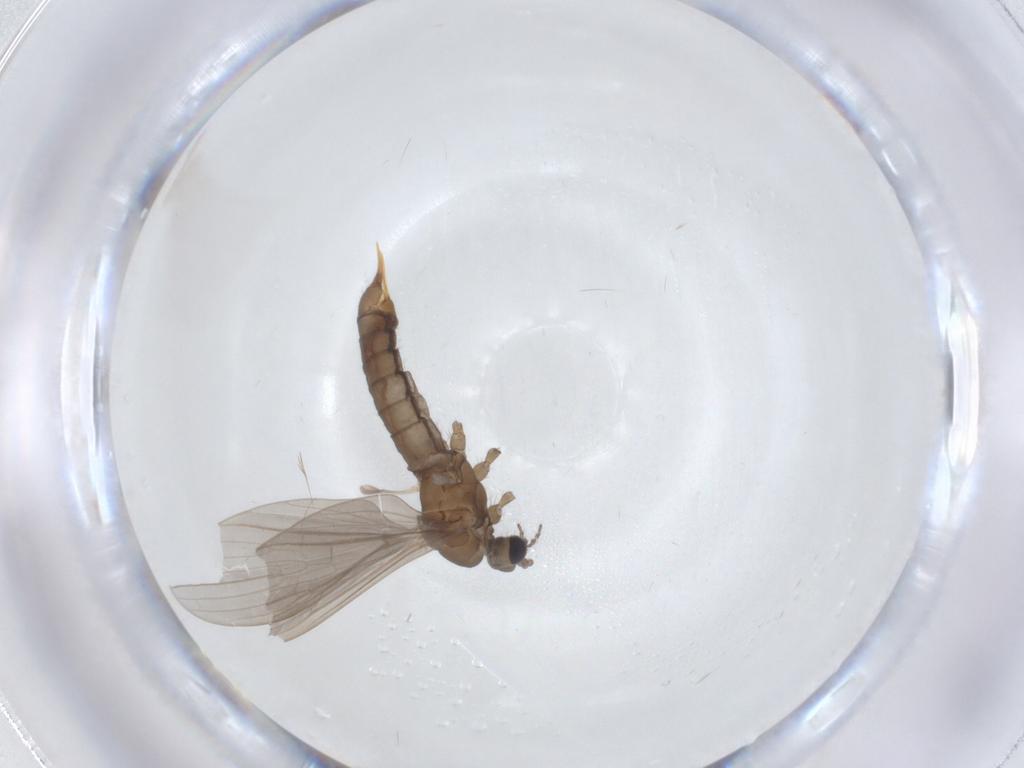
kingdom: Animalia
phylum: Arthropoda
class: Insecta
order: Diptera
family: Limoniidae
